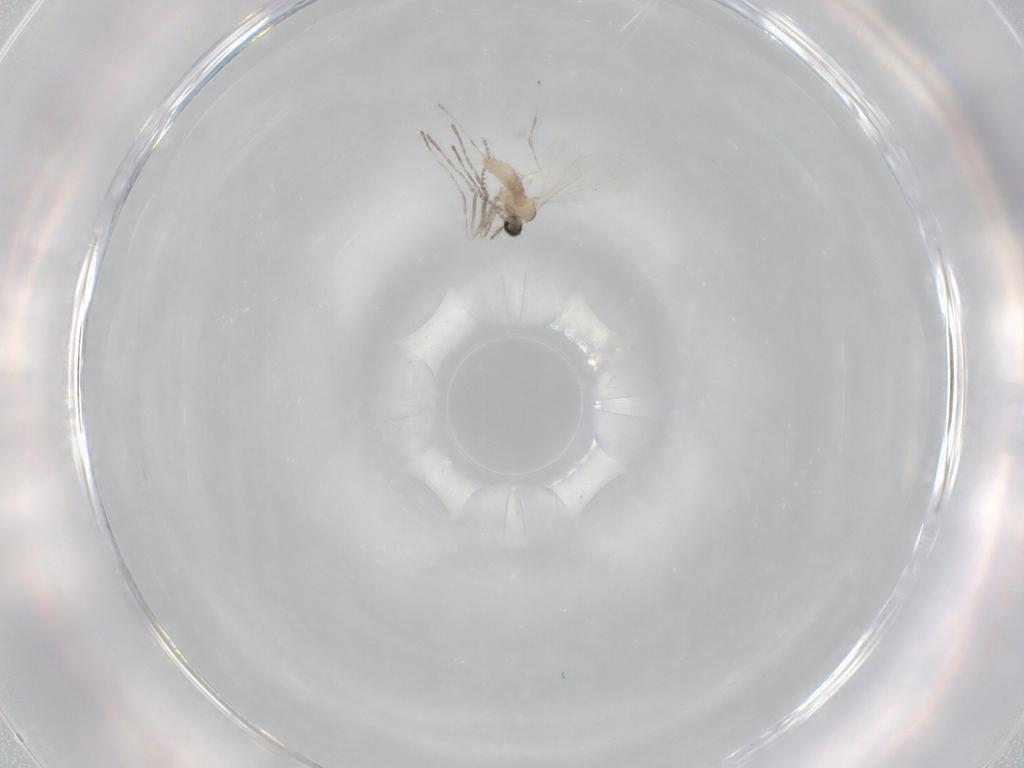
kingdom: Animalia
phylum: Arthropoda
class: Insecta
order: Diptera
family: Cecidomyiidae
